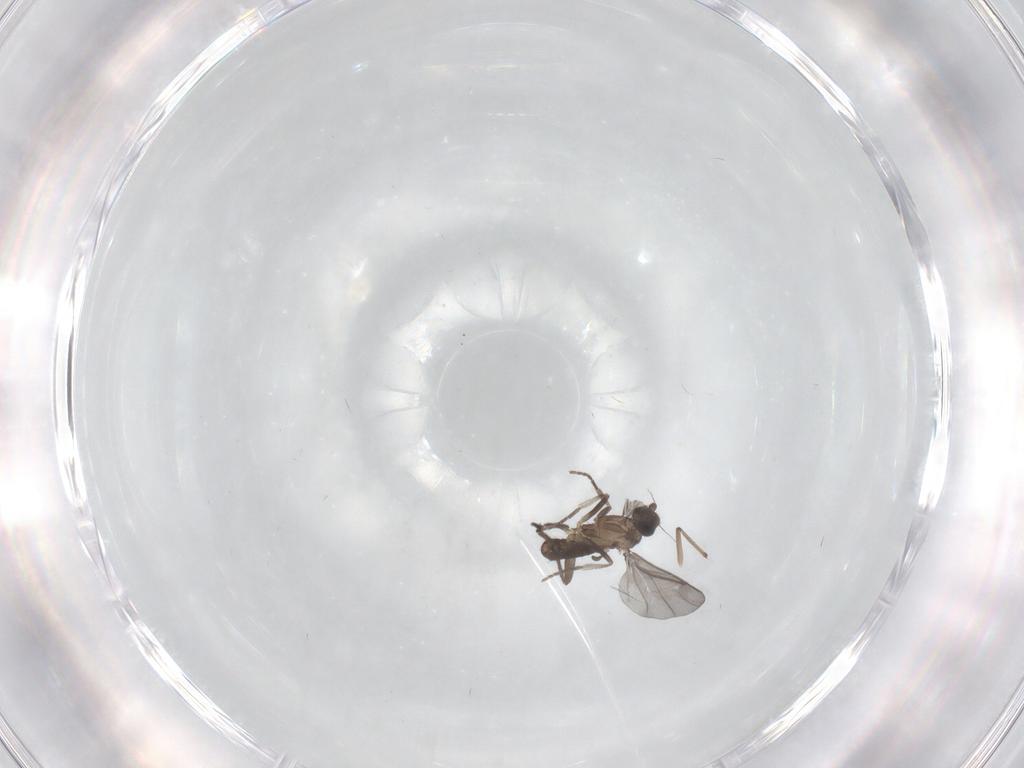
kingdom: Animalia
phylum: Arthropoda
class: Insecta
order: Diptera
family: Phoridae
